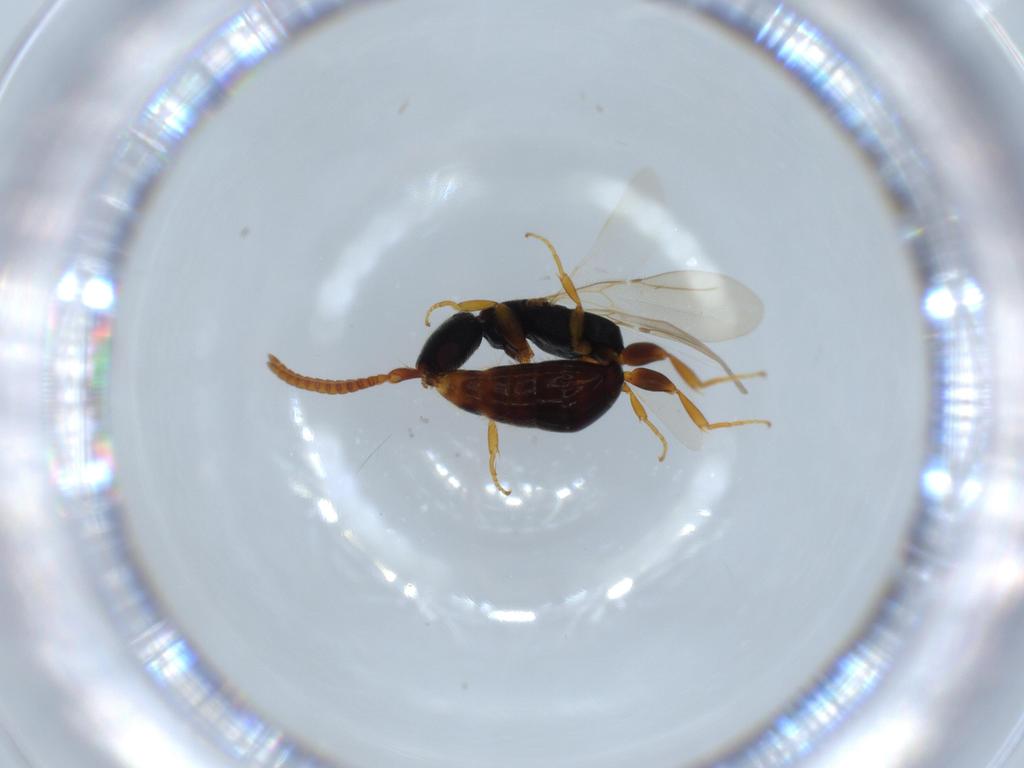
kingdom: Animalia
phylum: Arthropoda
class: Insecta
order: Hymenoptera
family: Bethylidae
